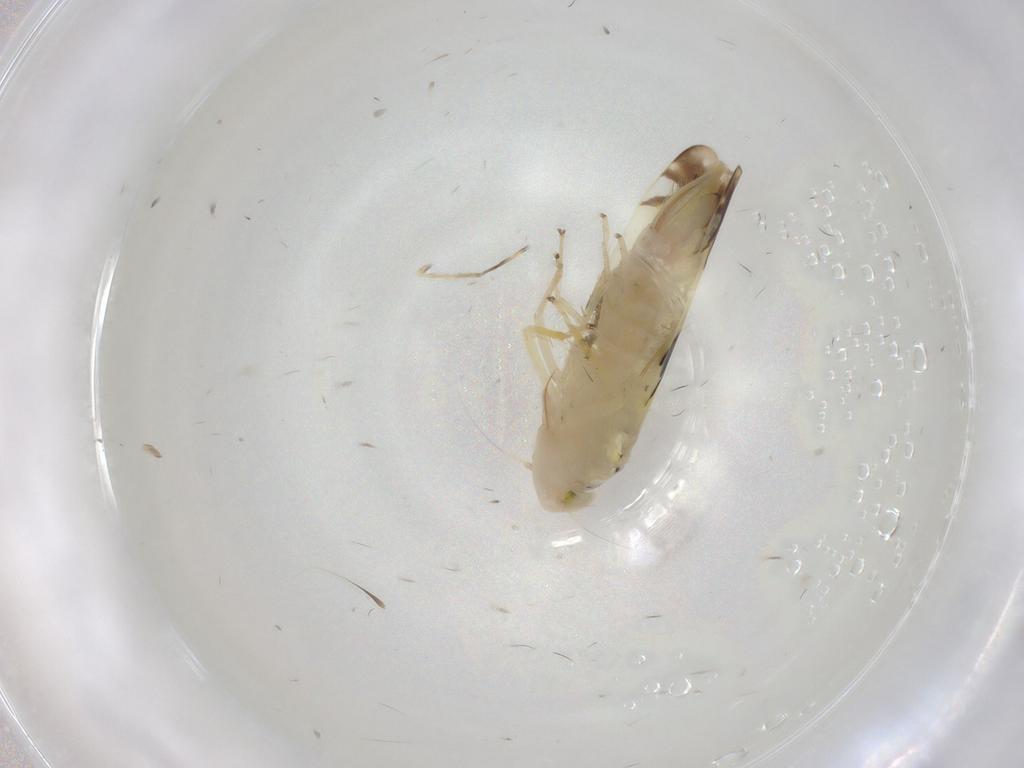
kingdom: Animalia
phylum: Arthropoda
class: Insecta
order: Hemiptera
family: Cicadellidae
